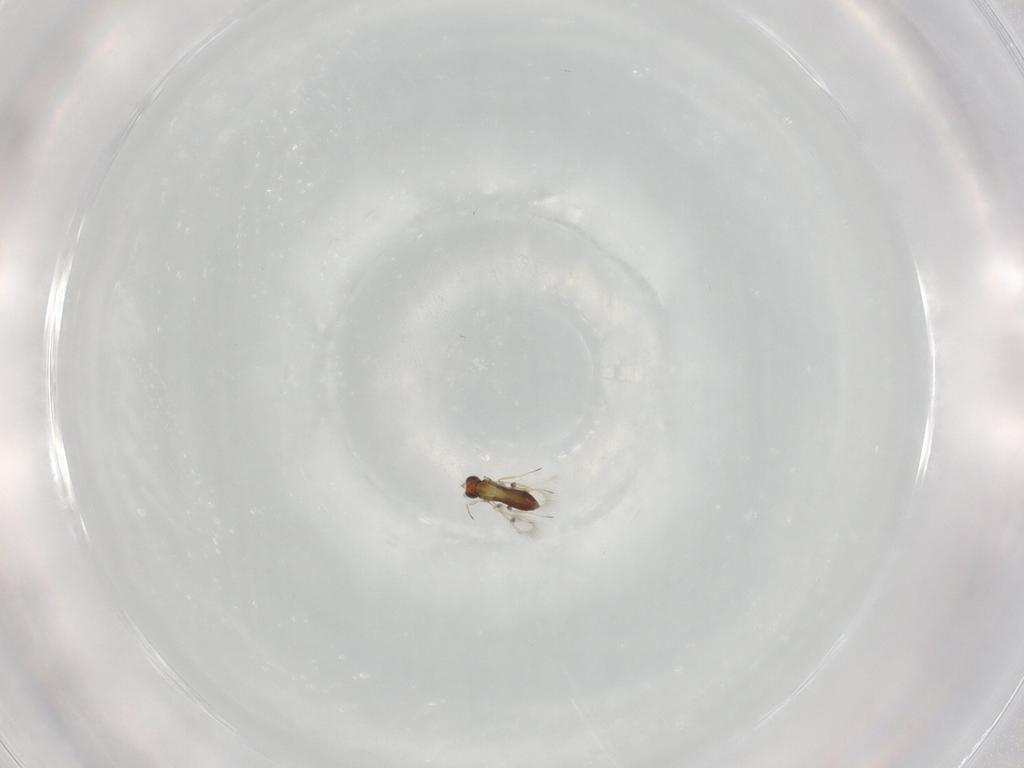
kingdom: Animalia
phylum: Arthropoda
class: Insecta
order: Hymenoptera
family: Trichogrammatidae
